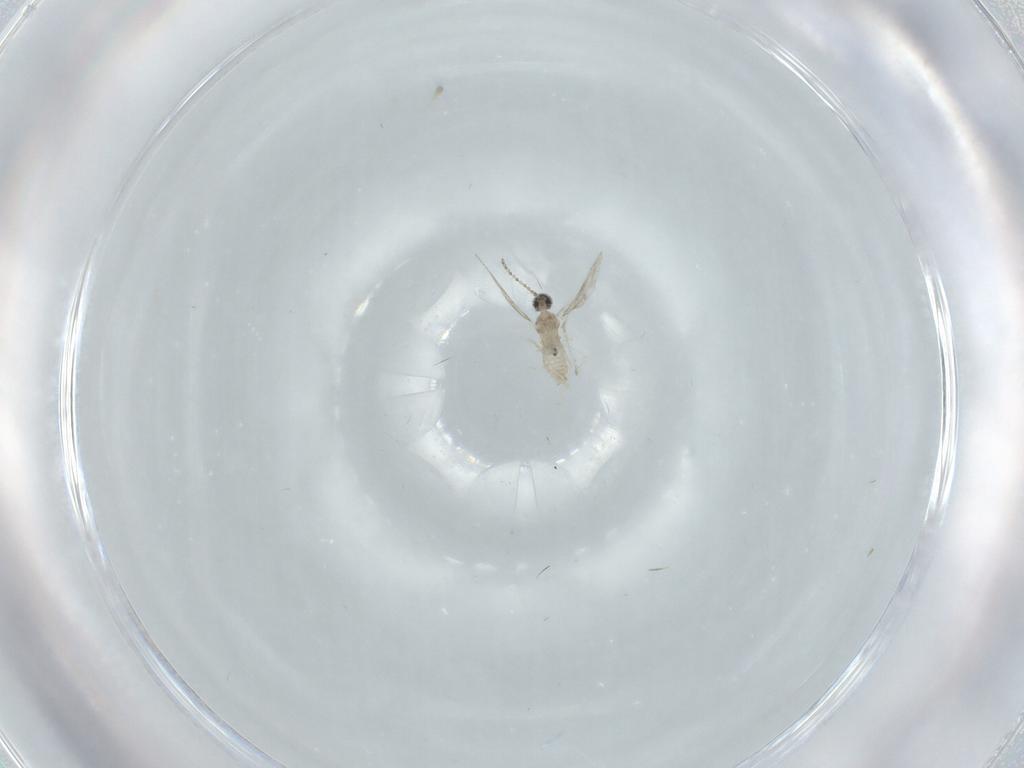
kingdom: Animalia
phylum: Arthropoda
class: Insecta
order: Diptera
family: Cecidomyiidae
